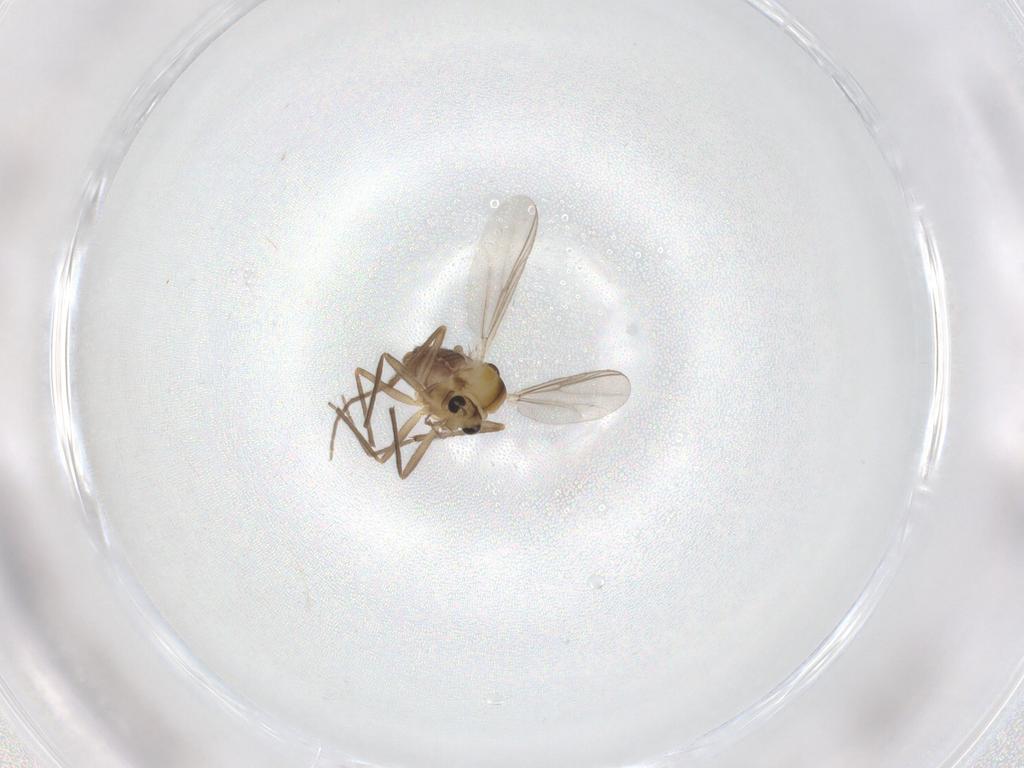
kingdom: Animalia
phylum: Arthropoda
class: Insecta
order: Diptera
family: Chironomidae
